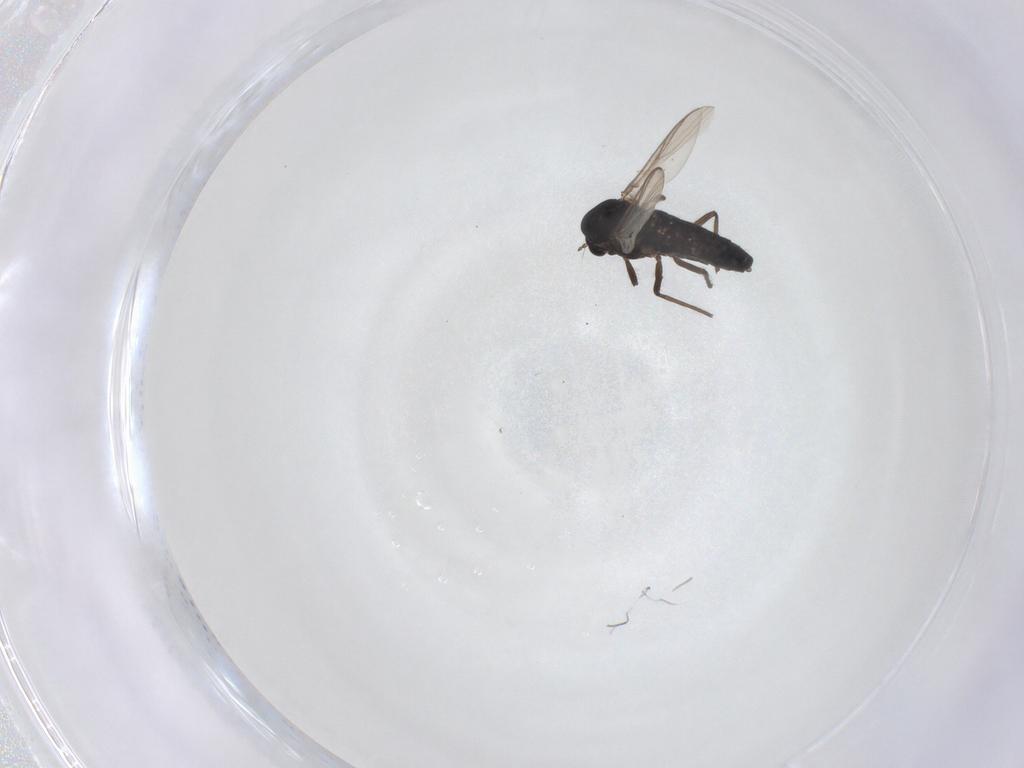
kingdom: Animalia
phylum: Arthropoda
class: Insecta
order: Diptera
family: Chironomidae
